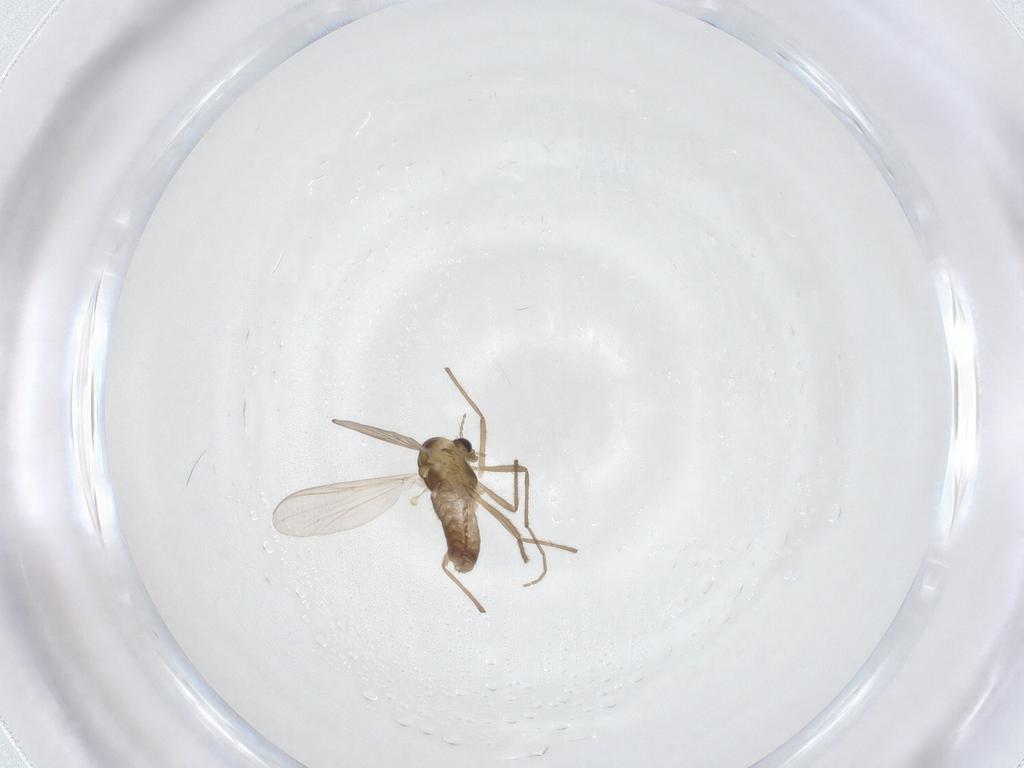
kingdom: Animalia
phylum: Arthropoda
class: Insecta
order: Diptera
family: Chironomidae
